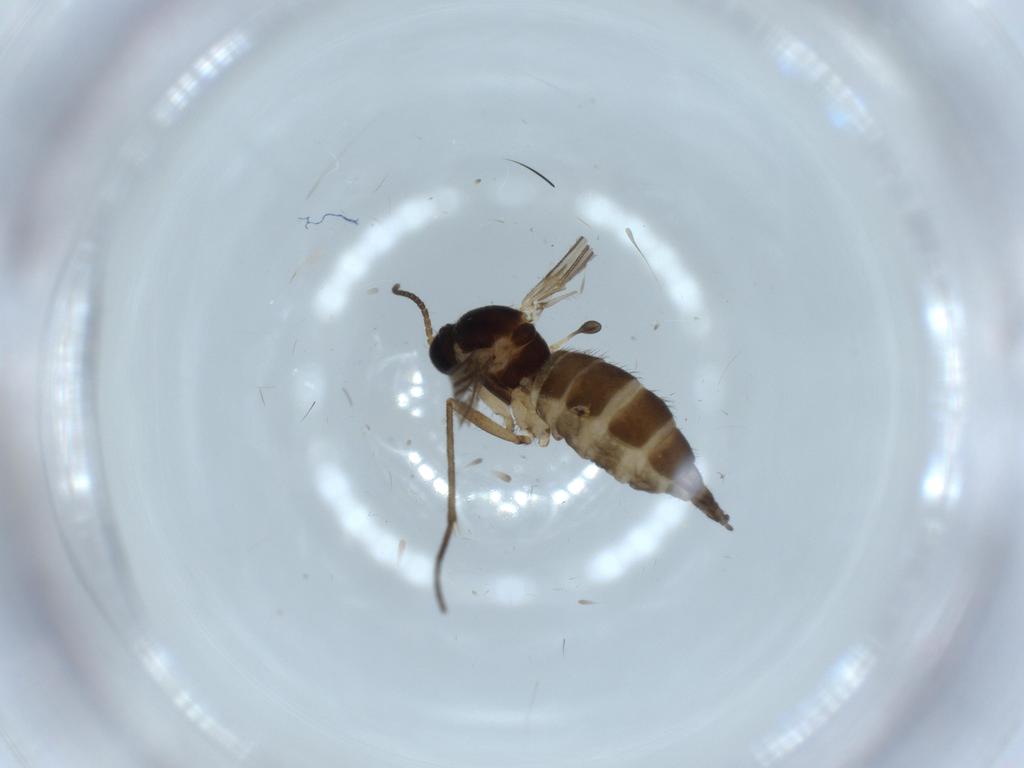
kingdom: Animalia
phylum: Arthropoda
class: Insecta
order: Diptera
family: Sciaridae
